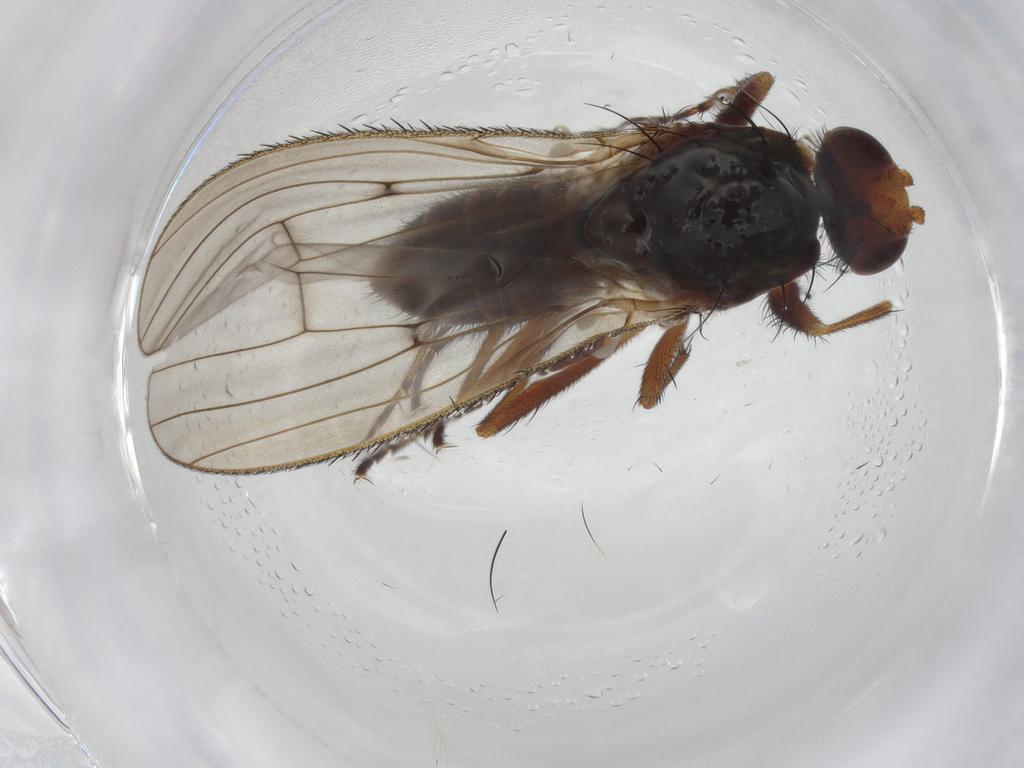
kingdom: Animalia
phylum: Arthropoda
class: Insecta
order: Diptera
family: Heleomyzidae
